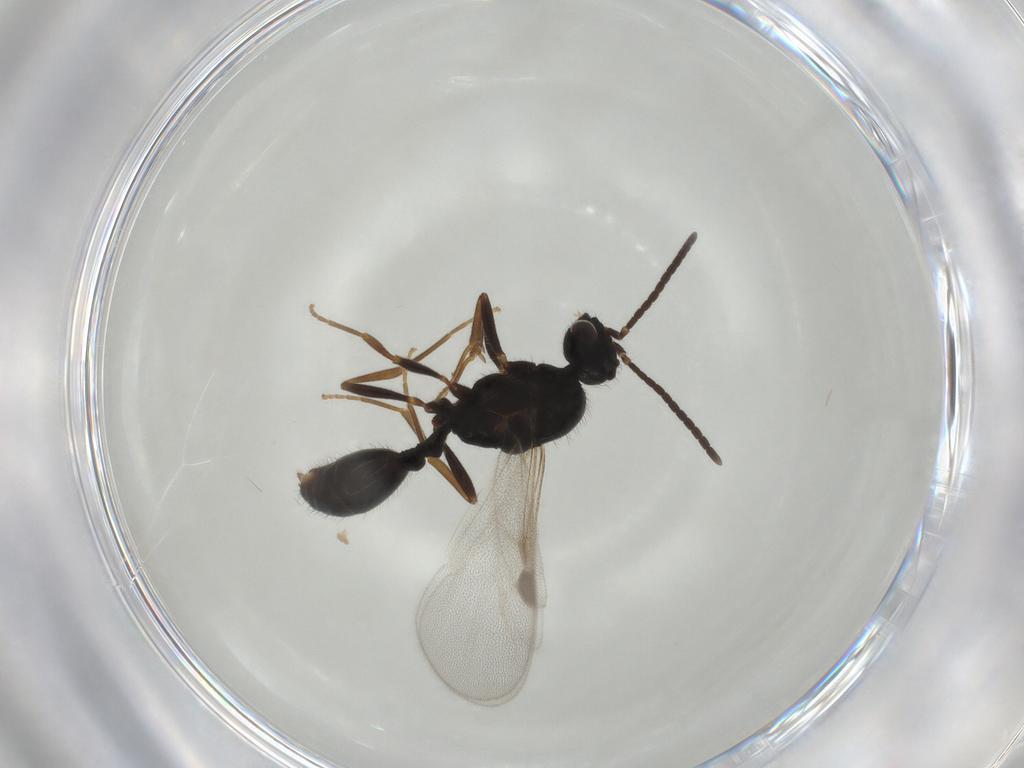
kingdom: Animalia
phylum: Arthropoda
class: Insecta
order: Hymenoptera
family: Formicidae
